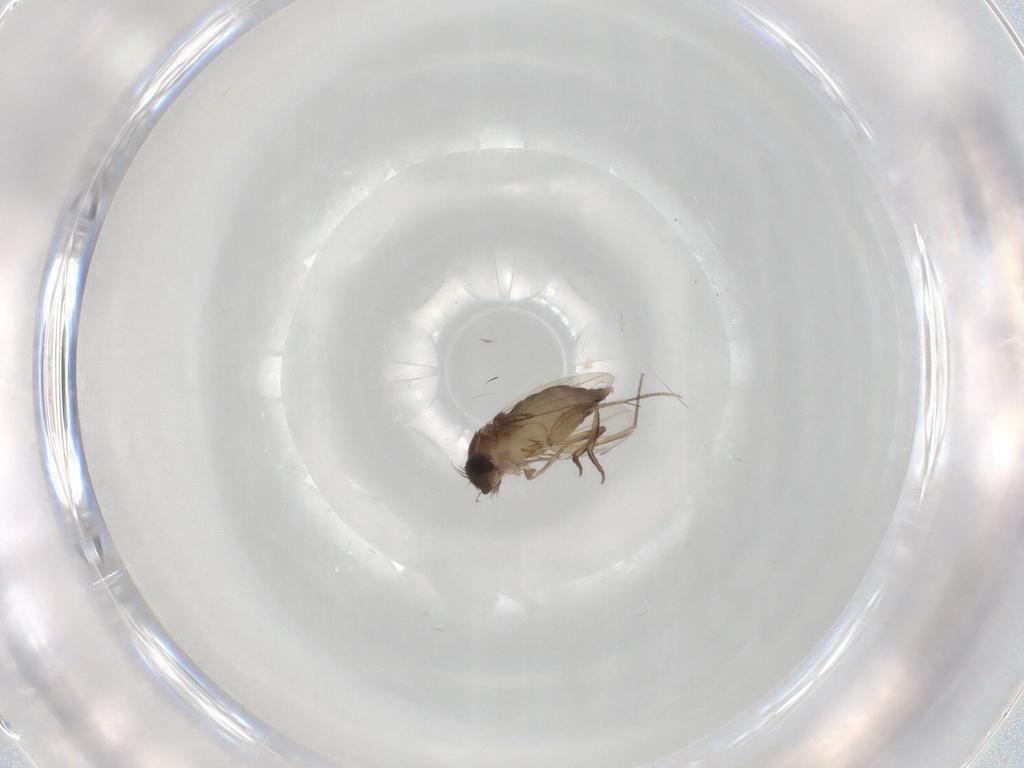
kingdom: Animalia
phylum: Arthropoda
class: Insecta
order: Diptera
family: Phoridae
